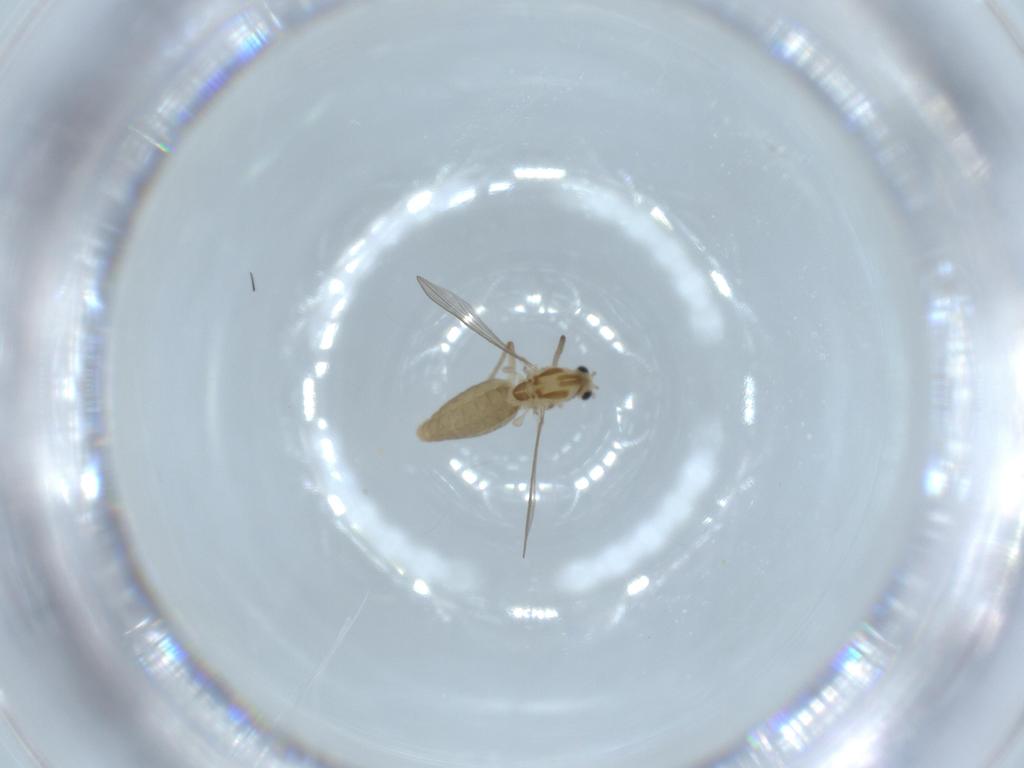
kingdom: Animalia
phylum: Arthropoda
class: Insecta
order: Diptera
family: Chironomidae
